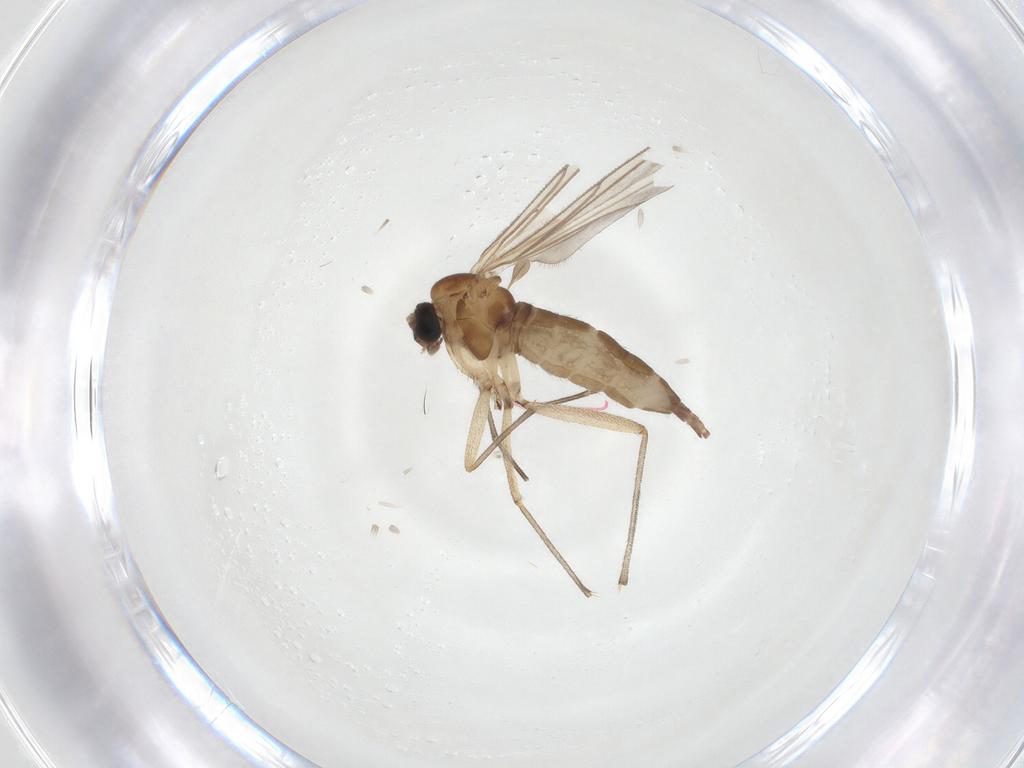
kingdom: Animalia
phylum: Arthropoda
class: Insecta
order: Diptera
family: Sciaridae
